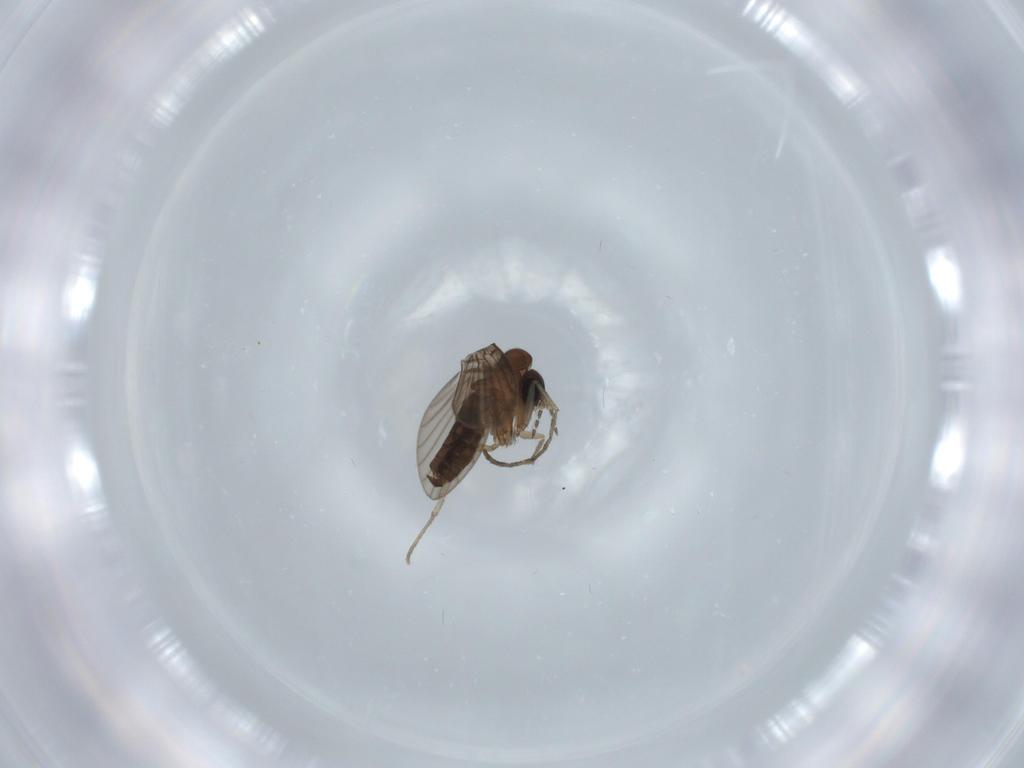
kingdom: Animalia
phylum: Arthropoda
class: Insecta
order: Diptera
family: Psychodidae
